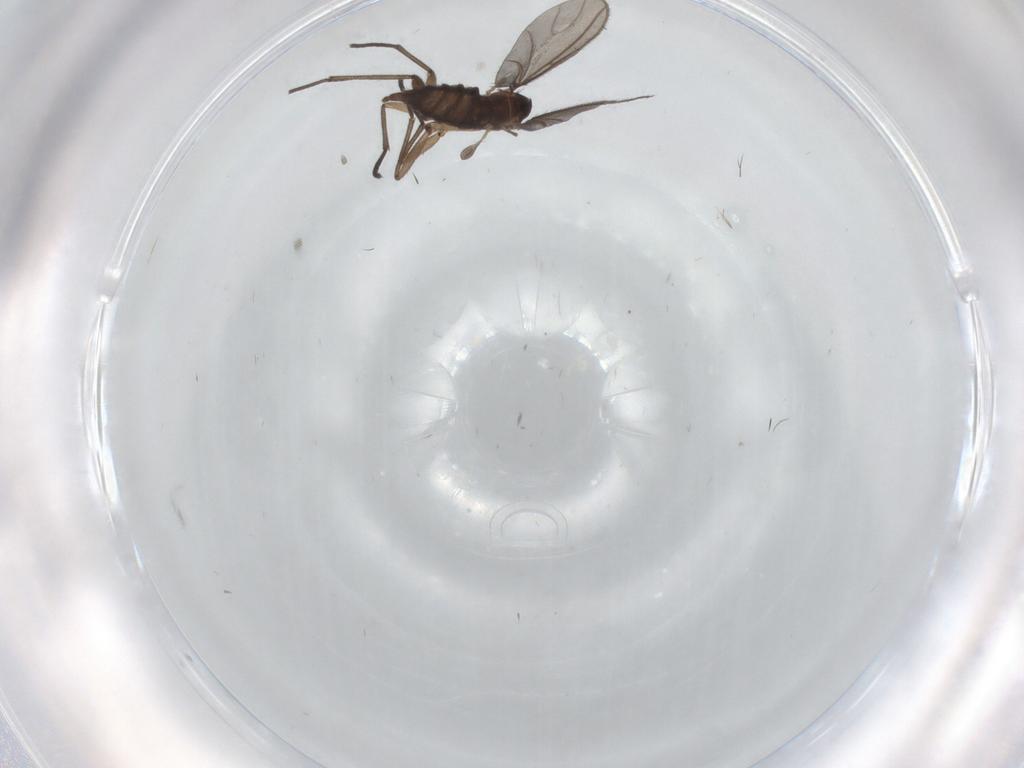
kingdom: Animalia
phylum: Arthropoda
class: Insecta
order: Diptera
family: Sciaridae
